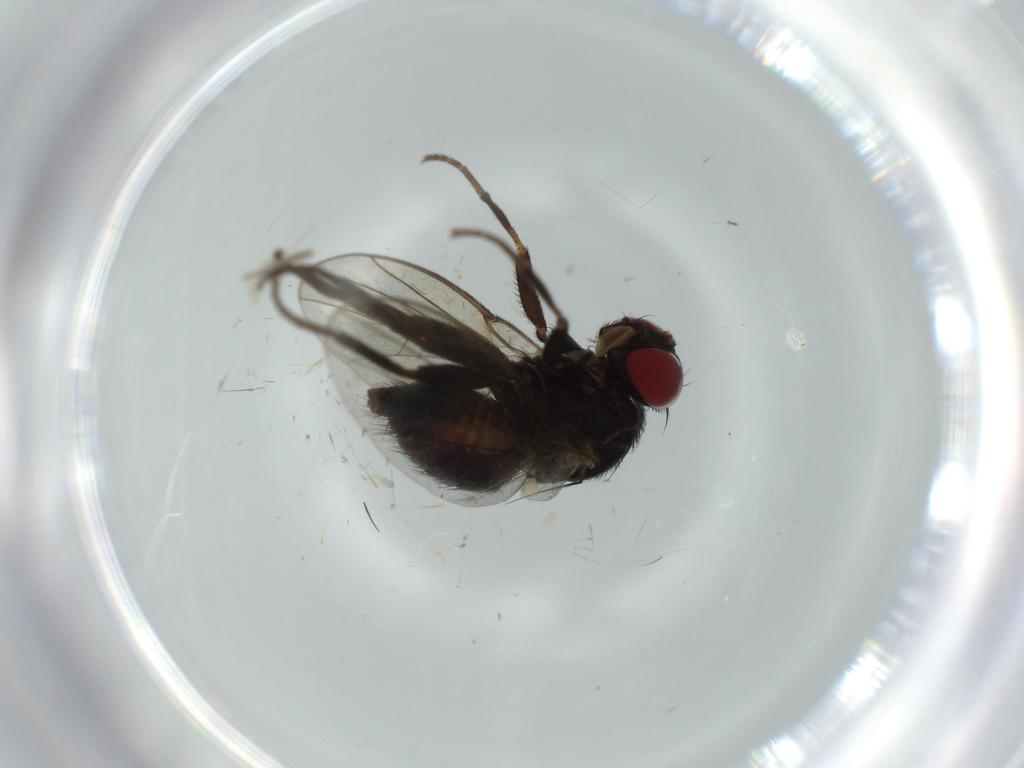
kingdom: Animalia
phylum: Arthropoda
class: Insecta
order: Diptera
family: Agromyzidae
